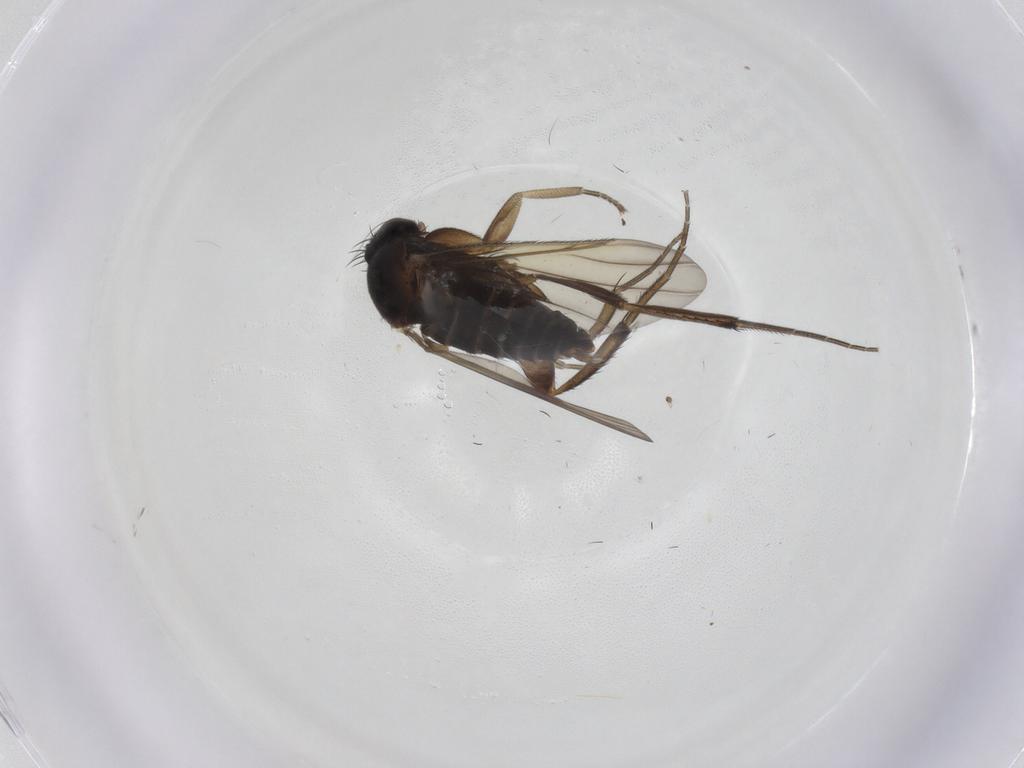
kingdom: Animalia
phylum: Arthropoda
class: Insecta
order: Diptera
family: Phoridae
